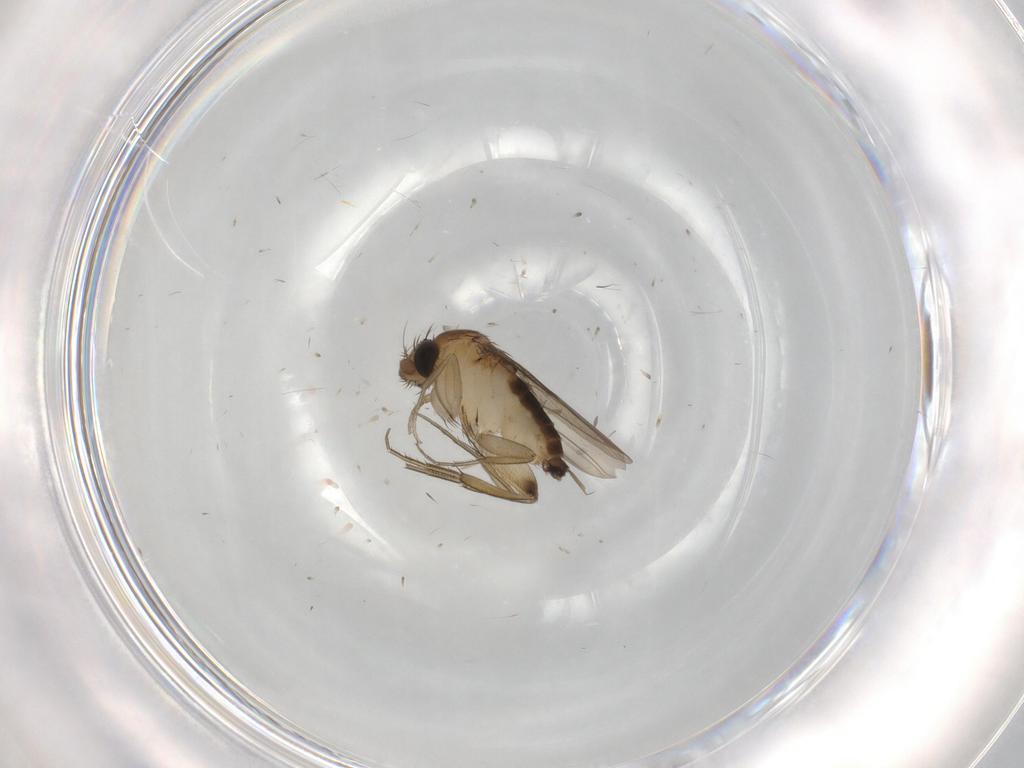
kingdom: Animalia
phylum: Arthropoda
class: Insecta
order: Diptera
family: Phoridae
